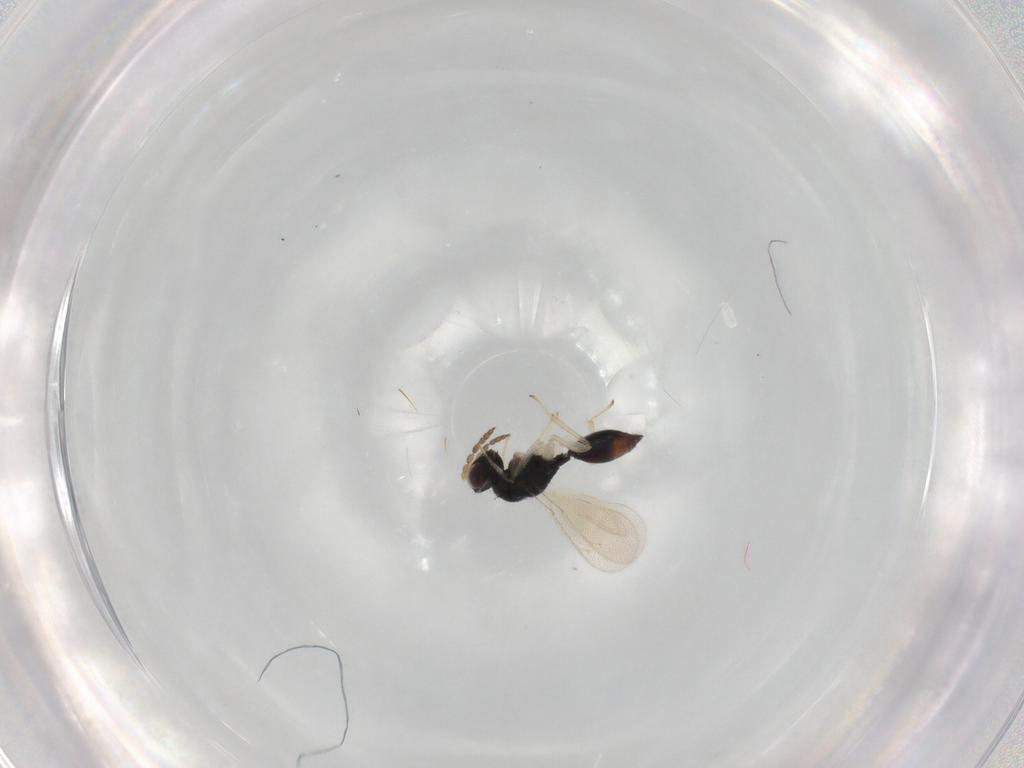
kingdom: Animalia
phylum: Arthropoda
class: Insecta
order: Hymenoptera
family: Eulophidae
